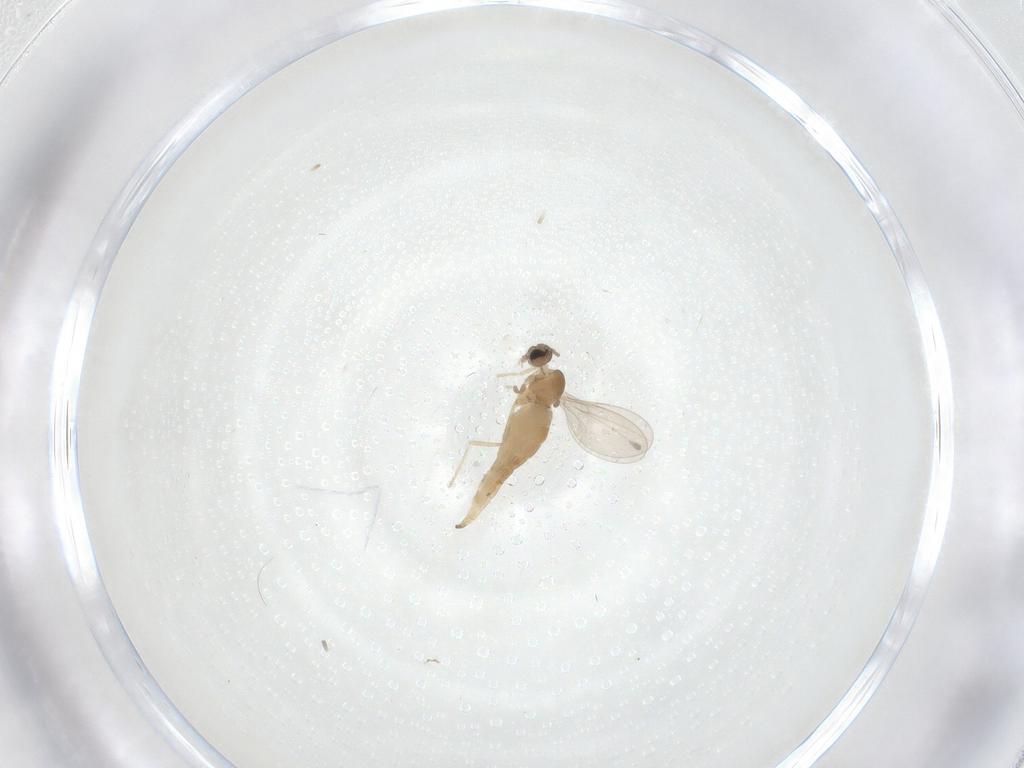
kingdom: Animalia
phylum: Arthropoda
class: Insecta
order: Diptera
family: Cecidomyiidae
